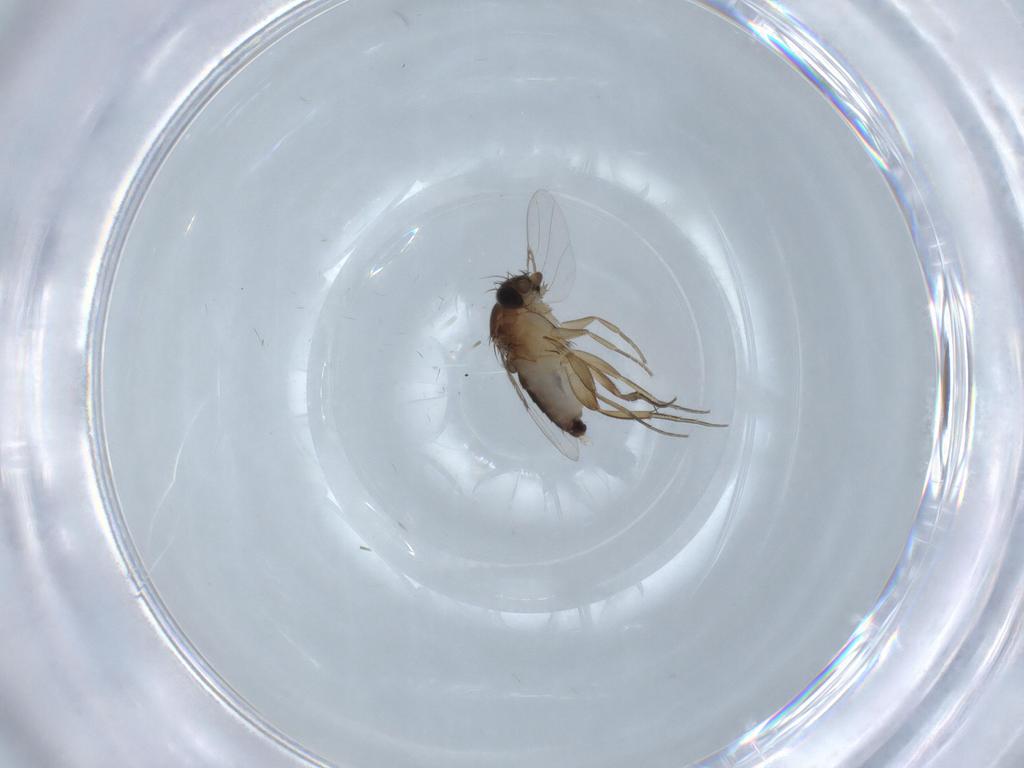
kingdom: Animalia
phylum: Arthropoda
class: Insecta
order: Diptera
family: Phoridae
